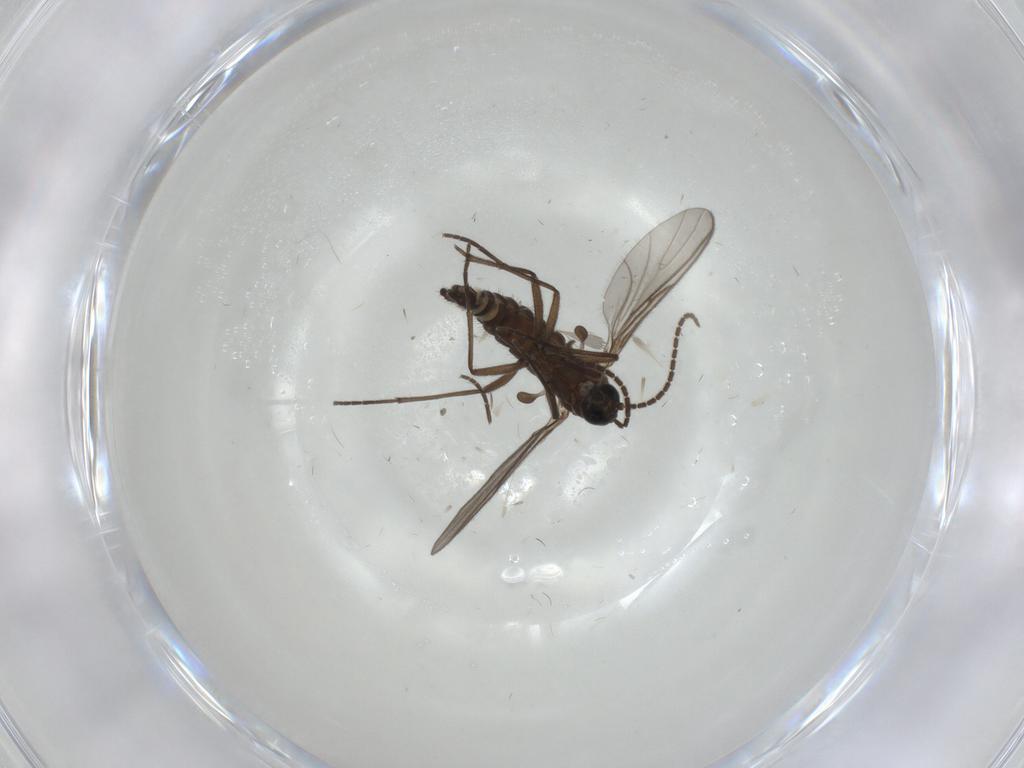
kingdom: Animalia
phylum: Arthropoda
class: Insecta
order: Diptera
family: Sciaridae
